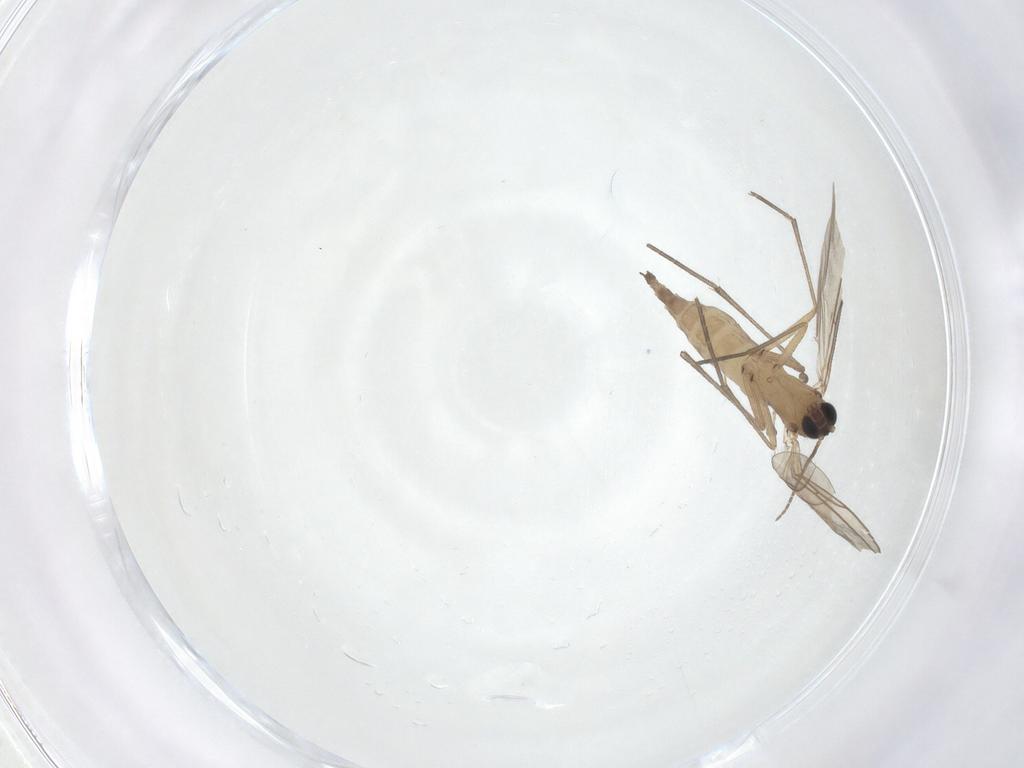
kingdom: Animalia
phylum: Arthropoda
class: Insecta
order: Diptera
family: Sciaridae
